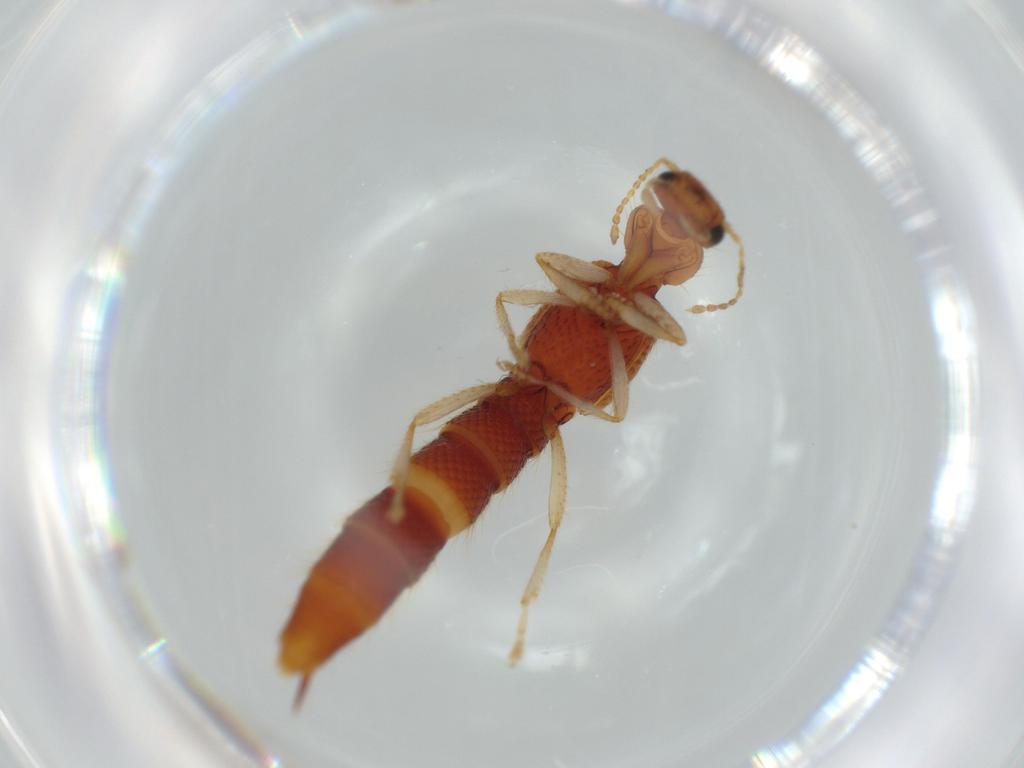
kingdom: Animalia
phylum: Arthropoda
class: Insecta
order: Coleoptera
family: Staphylinidae
